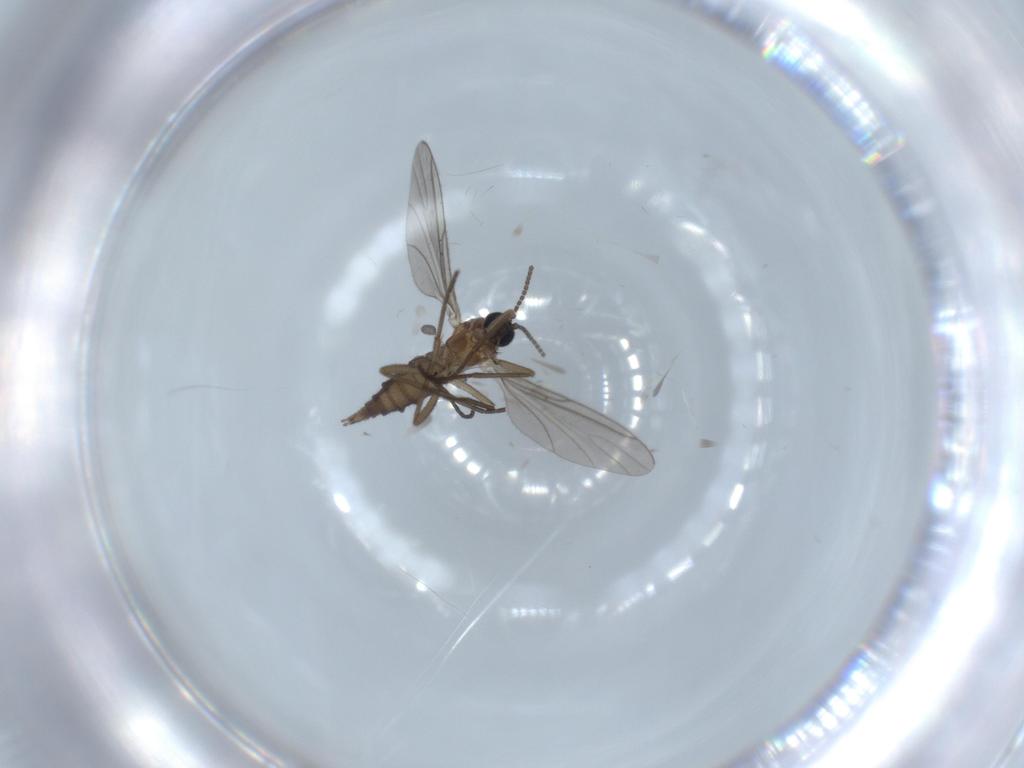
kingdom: Animalia
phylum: Arthropoda
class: Insecta
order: Diptera
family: Sciaridae
